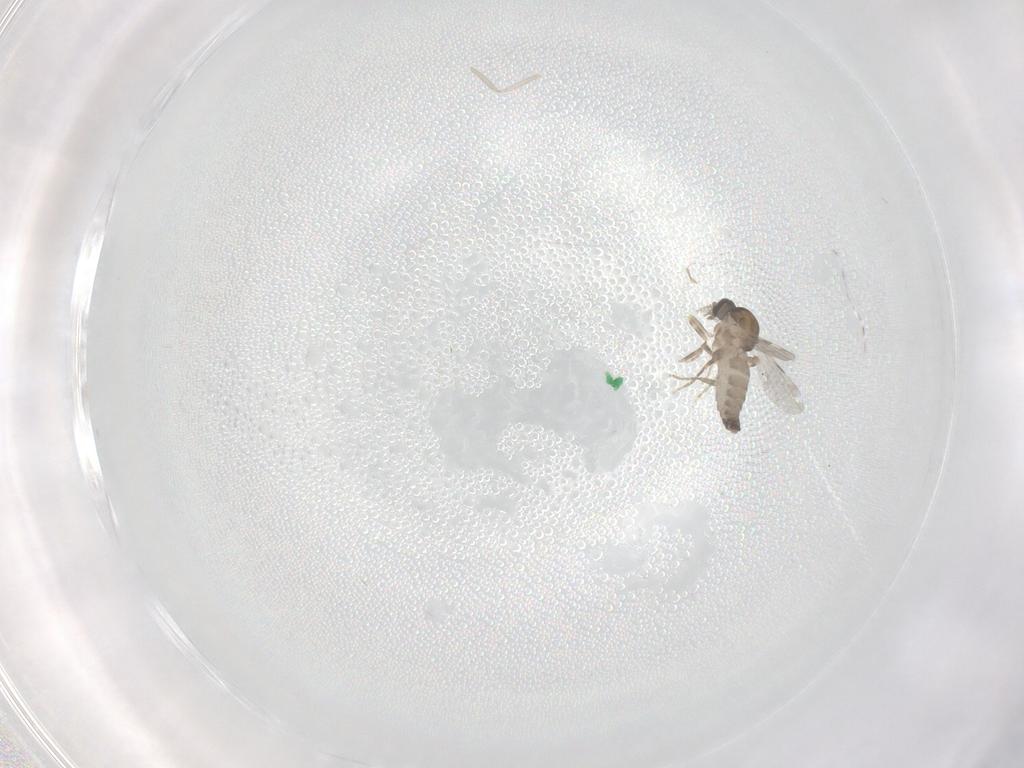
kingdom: Animalia
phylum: Arthropoda
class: Insecta
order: Diptera
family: Ceratopogonidae
